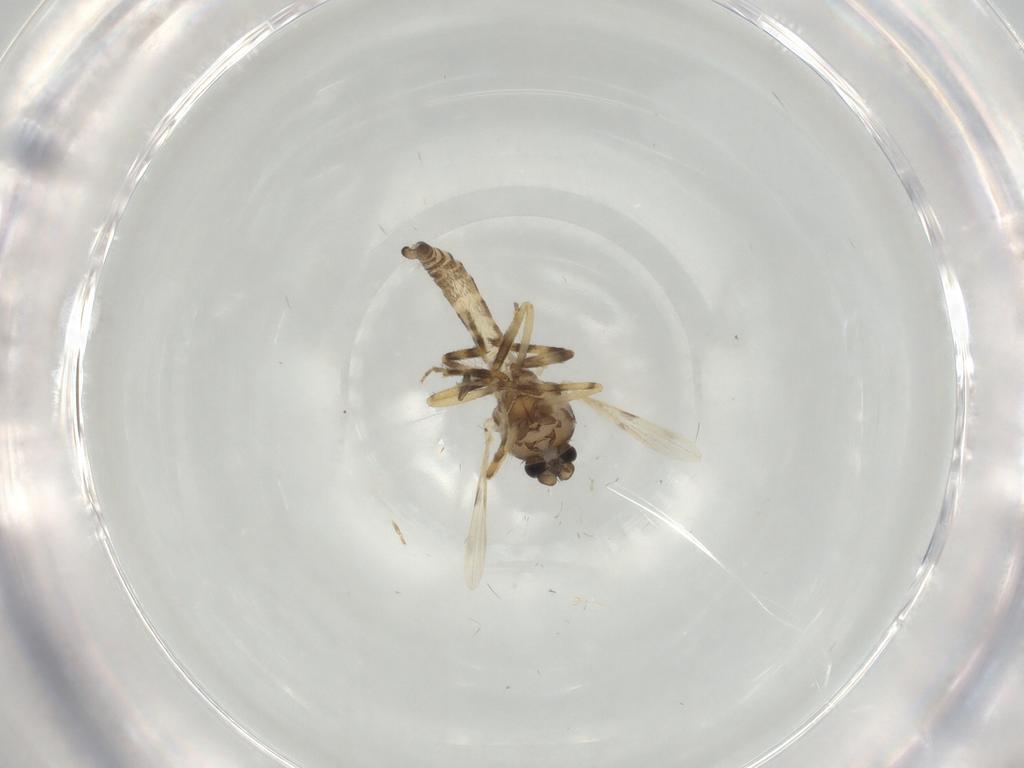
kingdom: Animalia
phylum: Arthropoda
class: Insecta
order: Diptera
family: Ceratopogonidae
